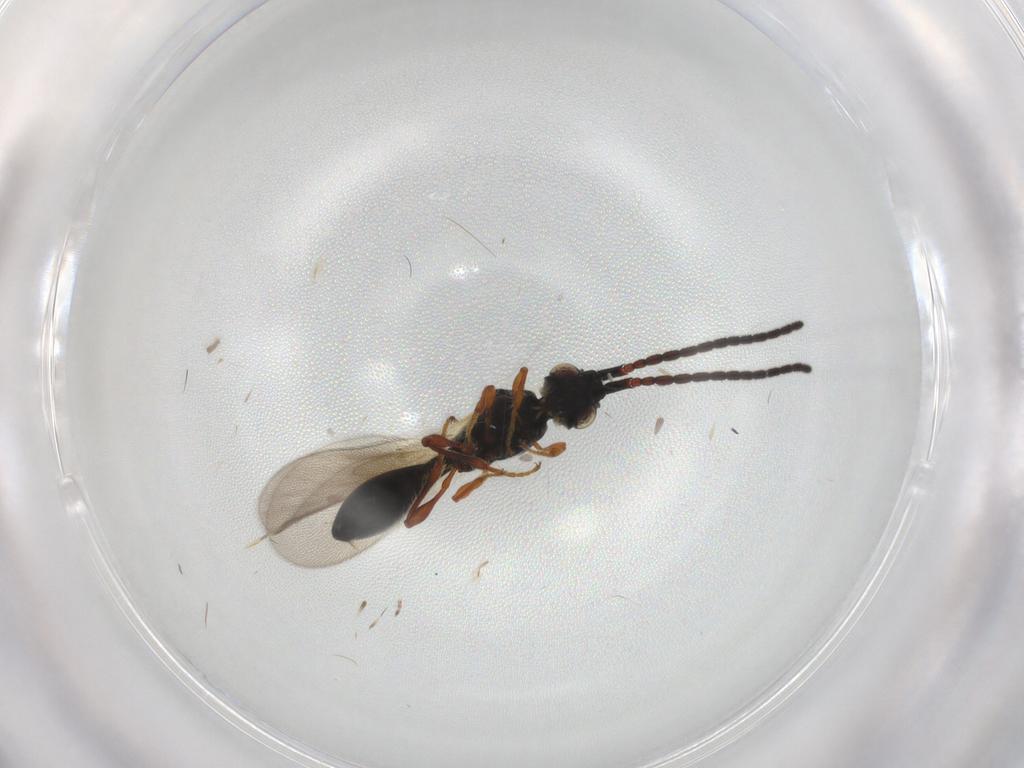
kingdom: Animalia
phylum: Arthropoda
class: Insecta
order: Hymenoptera
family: Diapriidae
